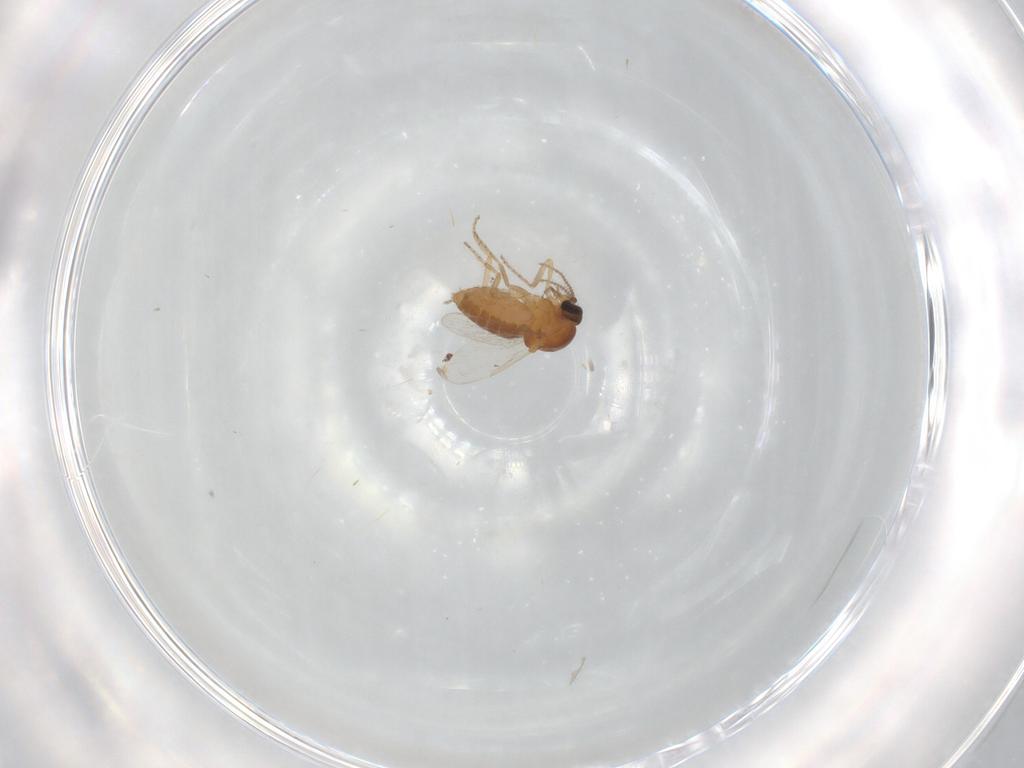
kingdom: Animalia
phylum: Arthropoda
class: Insecta
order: Diptera
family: Ceratopogonidae
